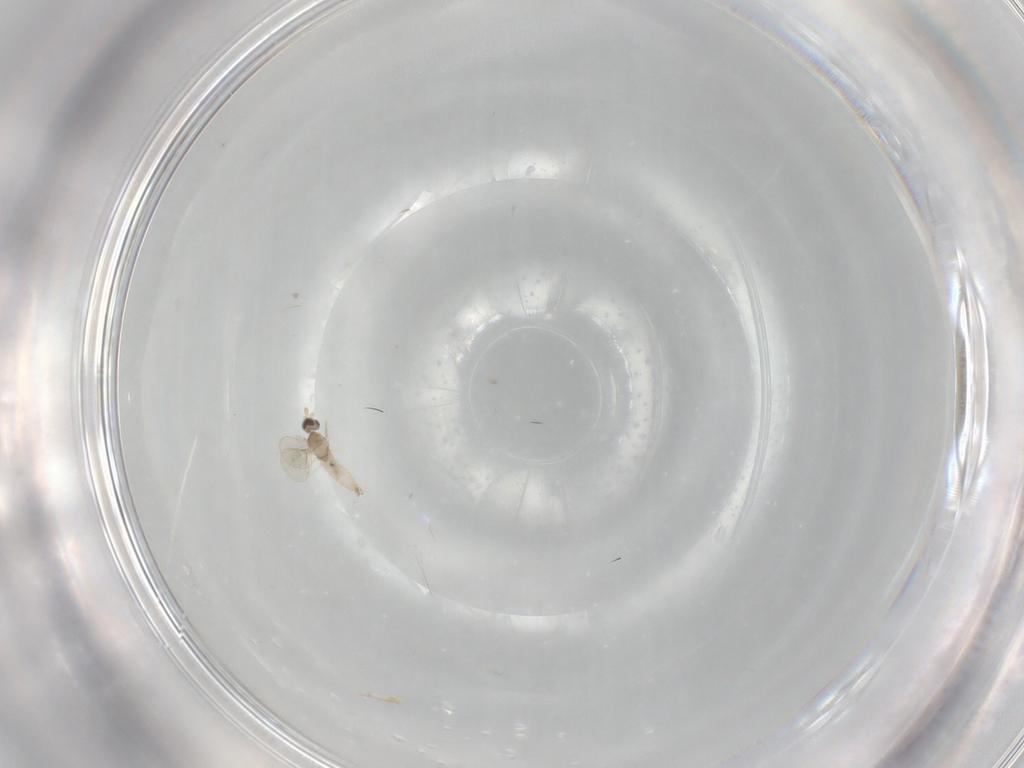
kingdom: Animalia
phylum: Arthropoda
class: Insecta
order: Diptera
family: Cecidomyiidae
